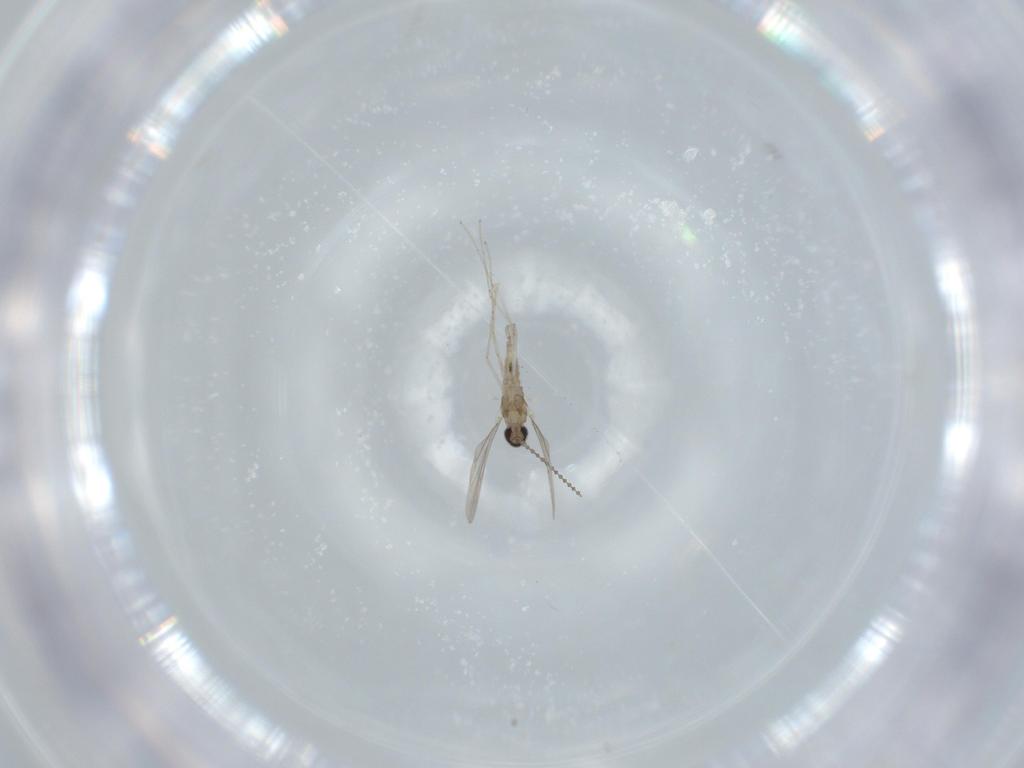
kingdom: Animalia
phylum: Arthropoda
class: Insecta
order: Diptera
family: Cecidomyiidae
